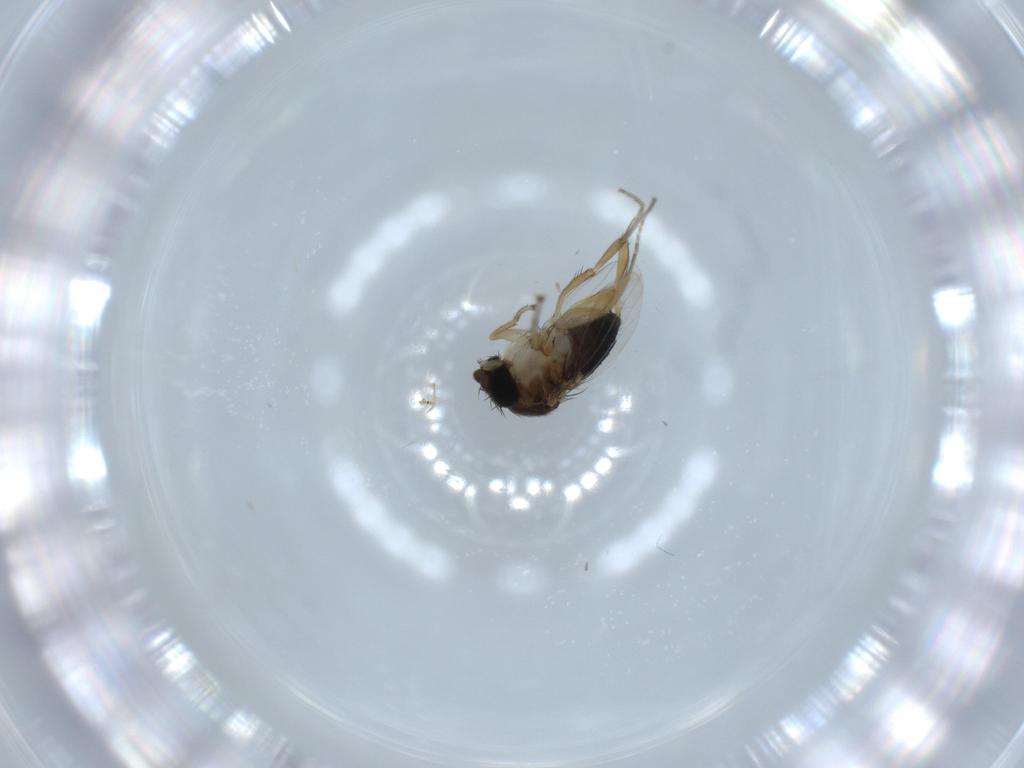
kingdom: Animalia
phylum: Arthropoda
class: Insecta
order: Diptera
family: Phoridae
